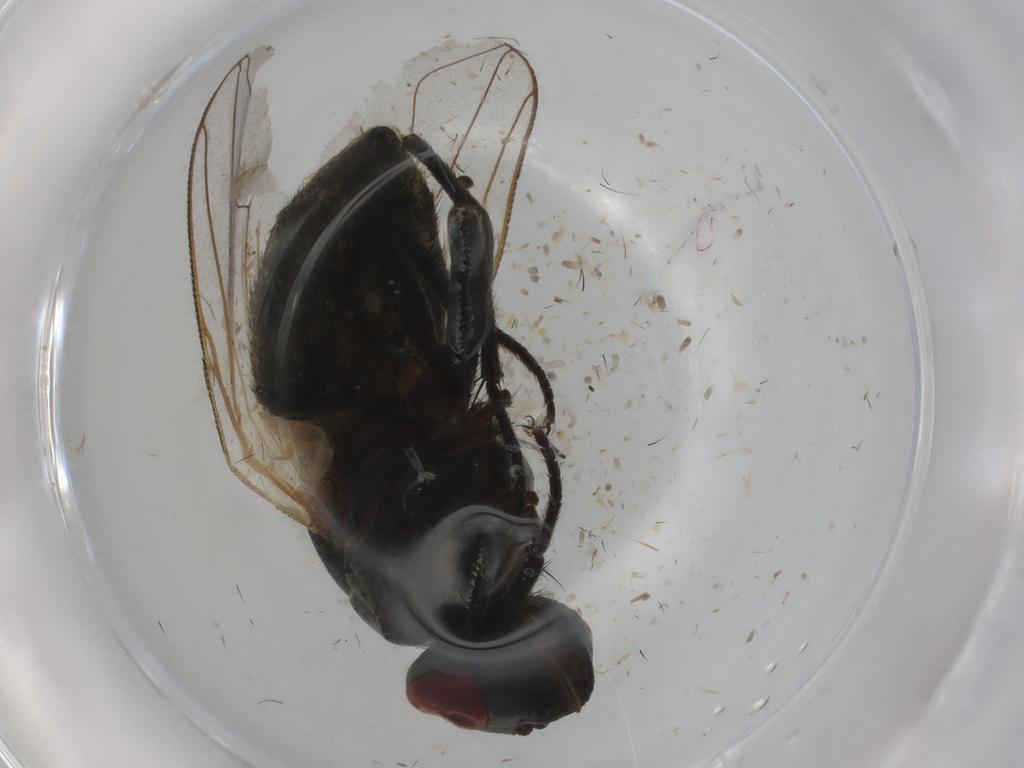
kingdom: Animalia
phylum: Arthropoda
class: Insecta
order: Diptera
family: Muscidae
